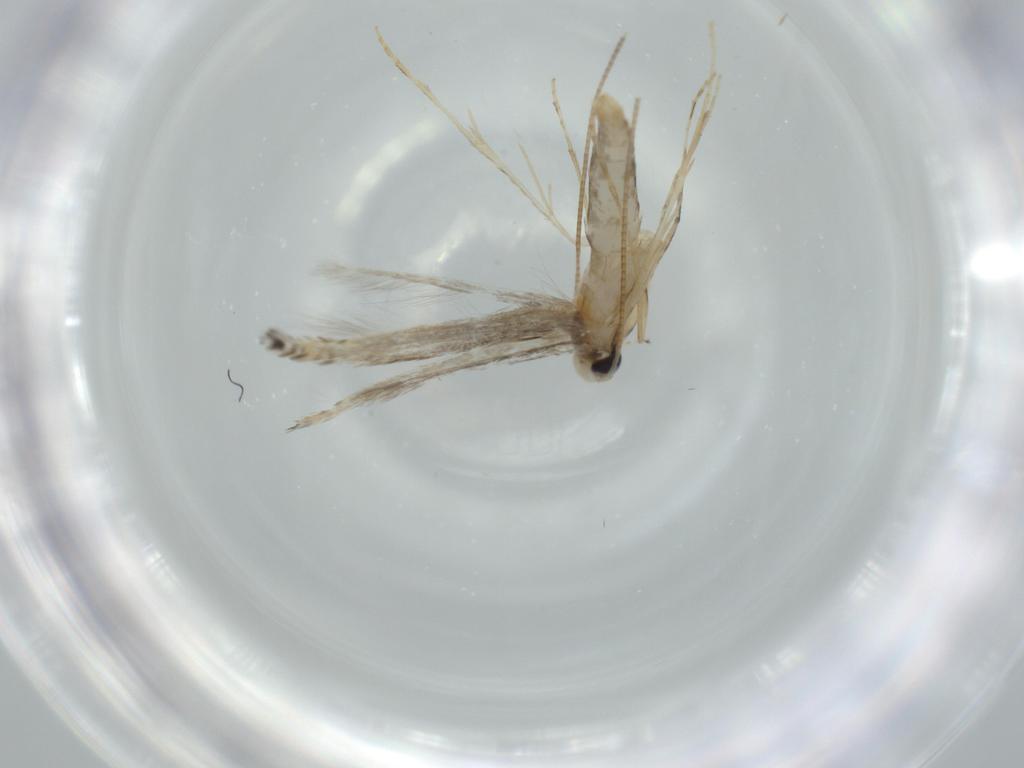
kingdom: Animalia
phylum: Arthropoda
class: Insecta
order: Lepidoptera
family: Gracillariidae
